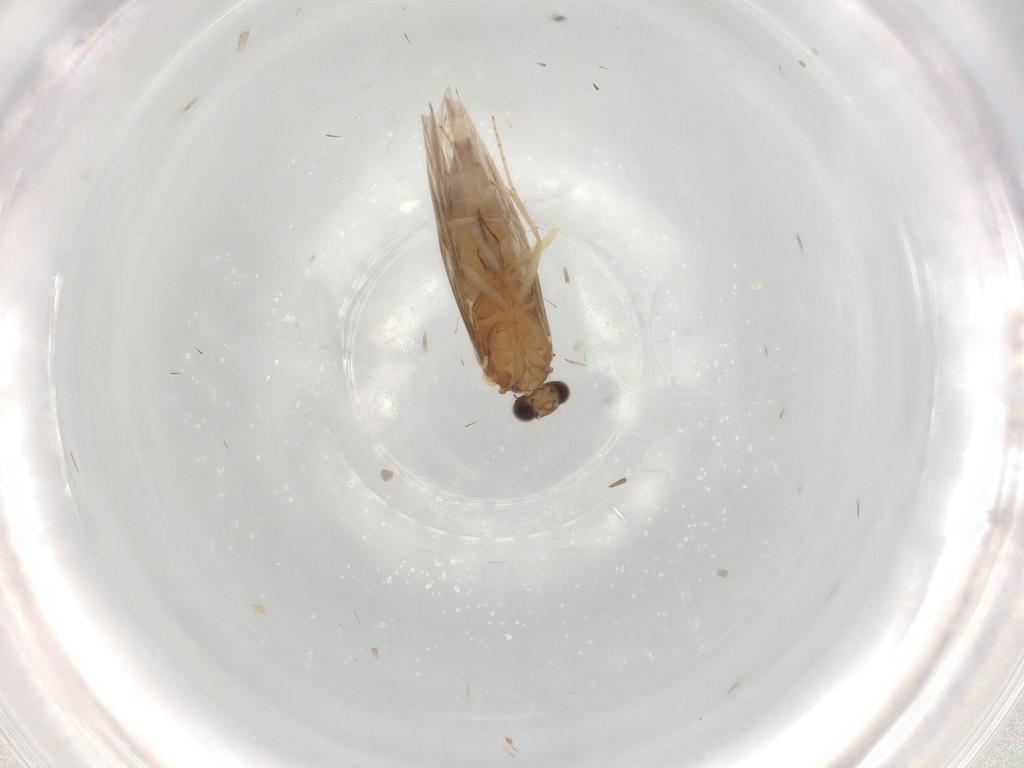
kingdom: Animalia
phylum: Arthropoda
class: Insecta
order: Trichoptera
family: Hydroptilidae
